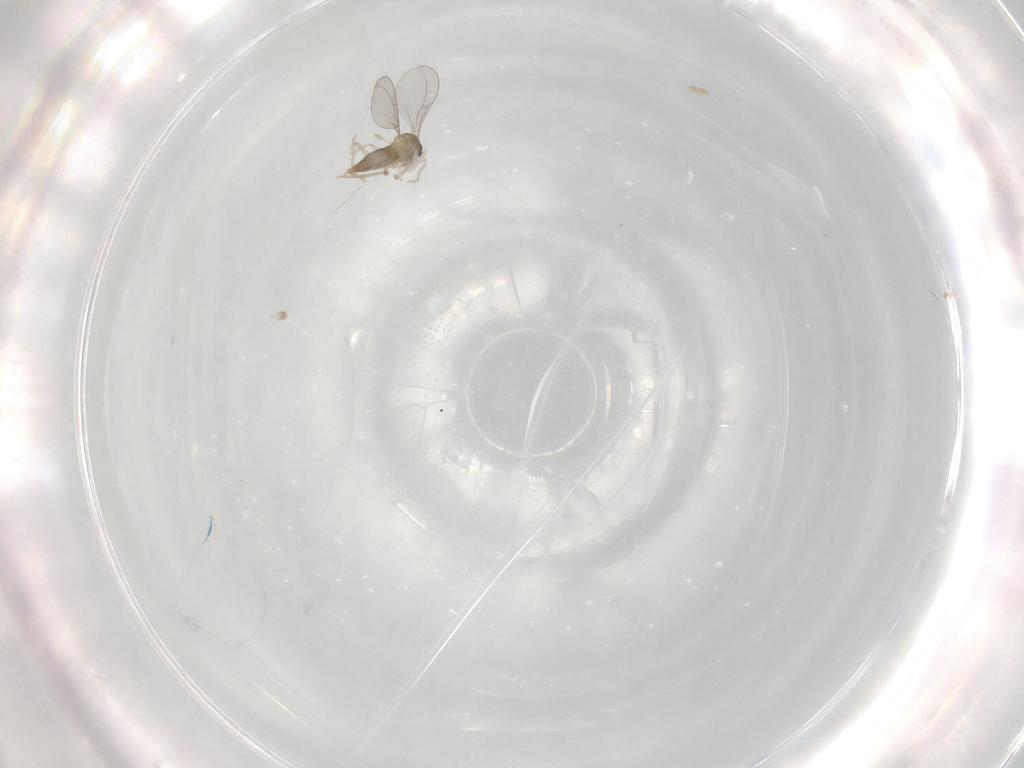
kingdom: Animalia
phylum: Arthropoda
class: Insecta
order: Diptera
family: Cecidomyiidae
